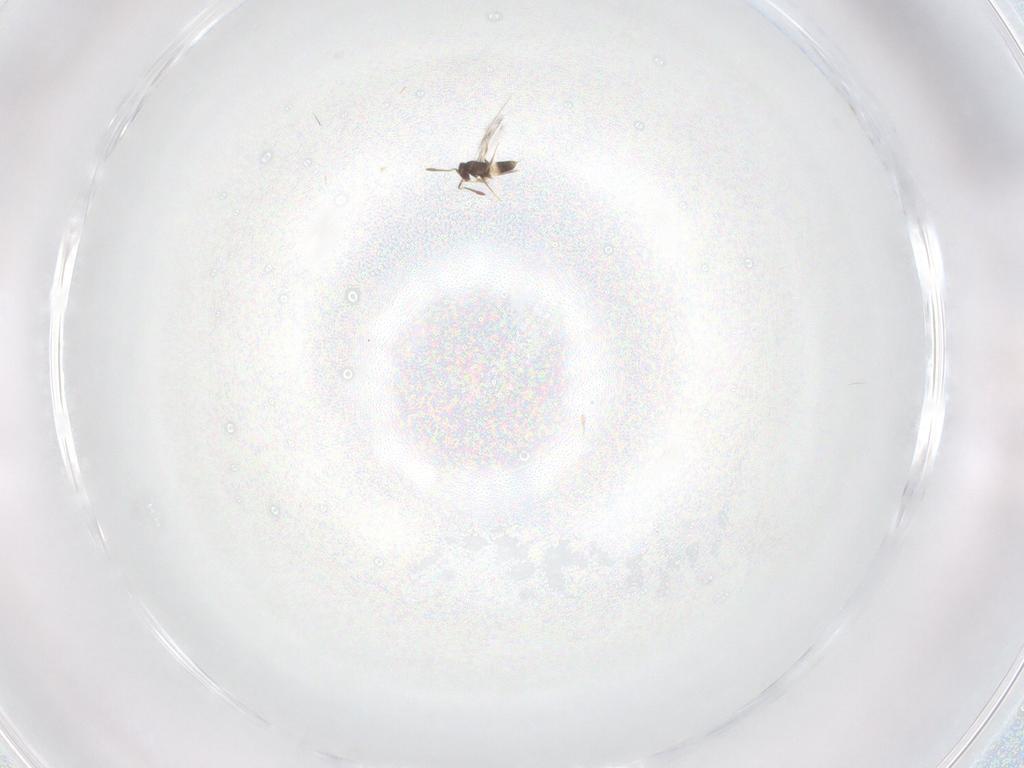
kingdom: Animalia
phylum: Arthropoda
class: Insecta
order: Hymenoptera
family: Mymaridae
